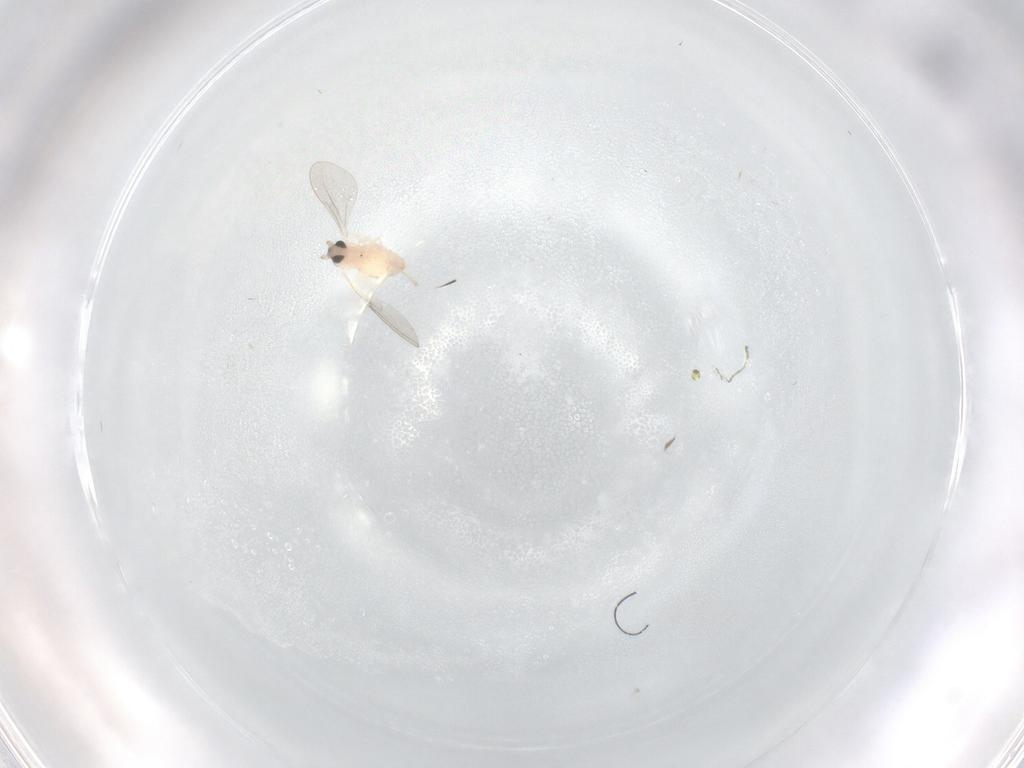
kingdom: Animalia
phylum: Arthropoda
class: Insecta
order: Diptera
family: Cecidomyiidae
